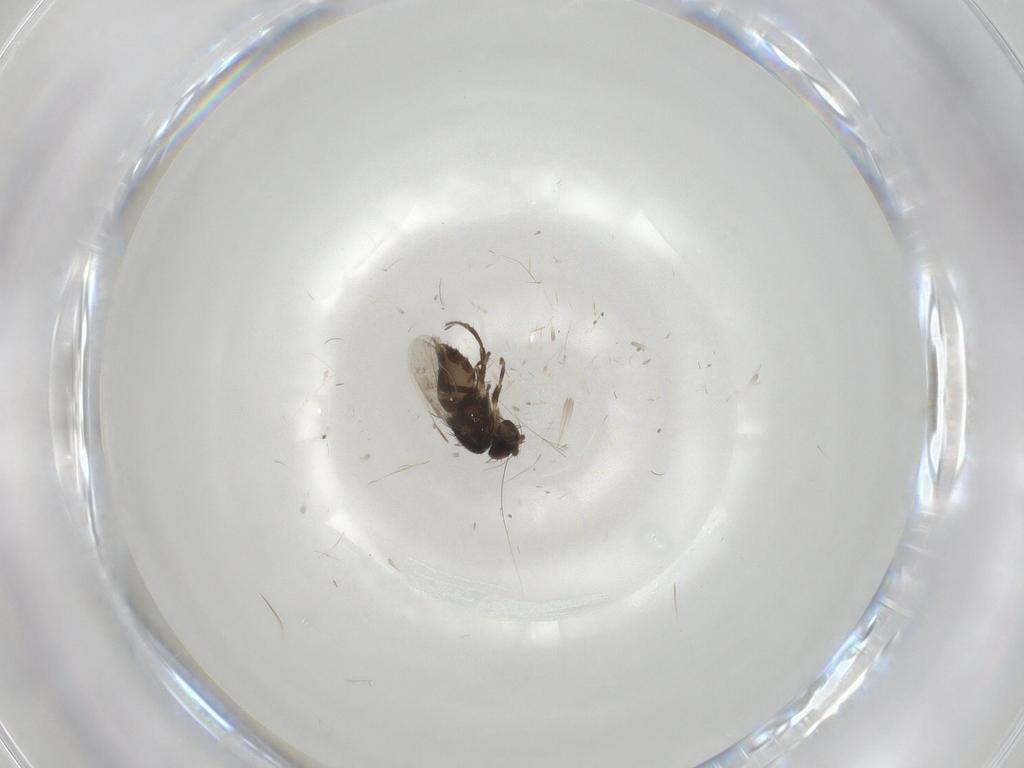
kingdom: Animalia
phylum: Arthropoda
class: Insecta
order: Diptera
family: Sphaeroceridae
